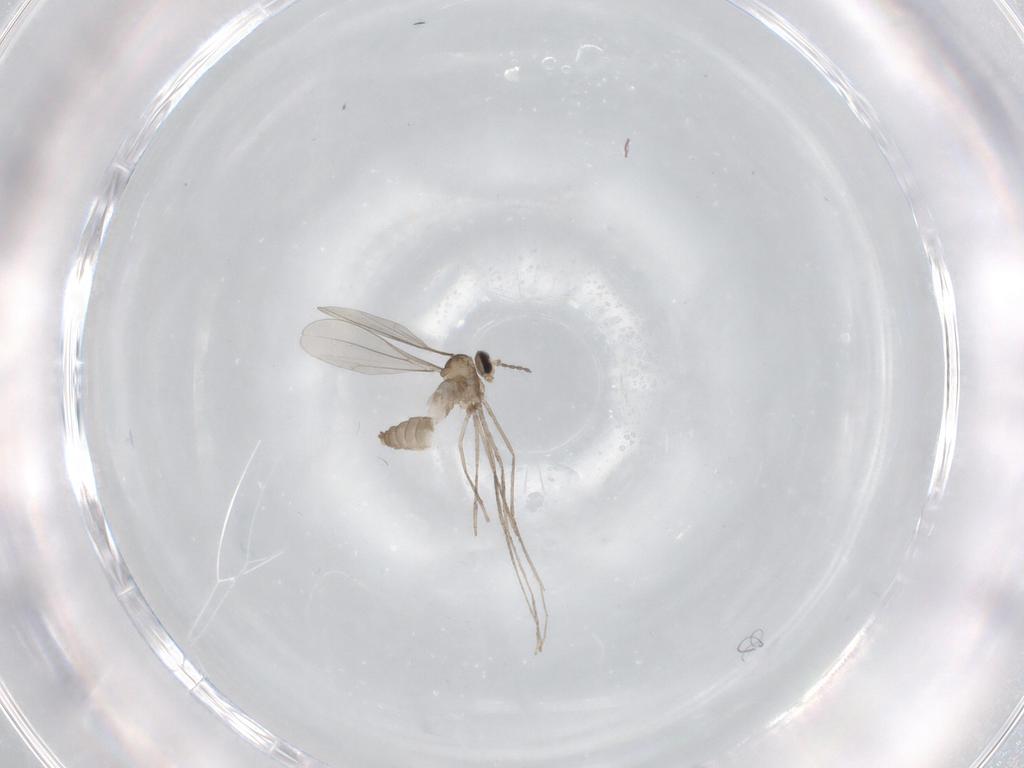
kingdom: Animalia
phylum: Arthropoda
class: Insecta
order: Diptera
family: Cecidomyiidae
